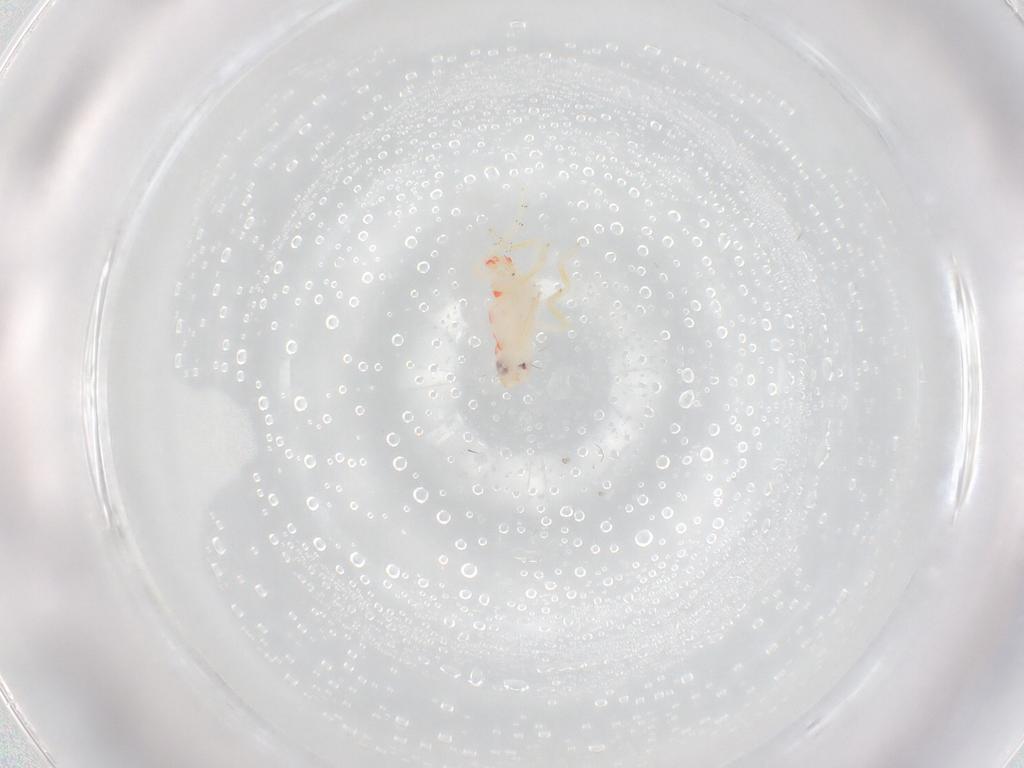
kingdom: Animalia
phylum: Arthropoda
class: Insecta
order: Hemiptera
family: Tropiduchidae
